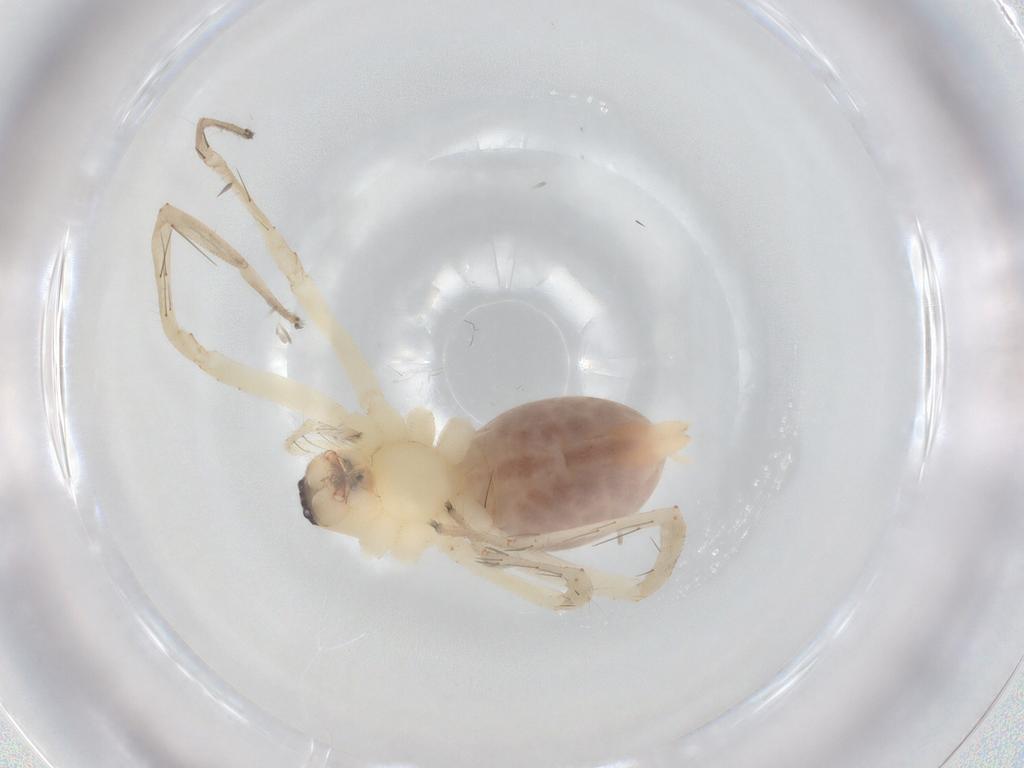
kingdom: Animalia
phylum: Arthropoda
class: Arachnida
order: Araneae
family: Anyphaenidae
